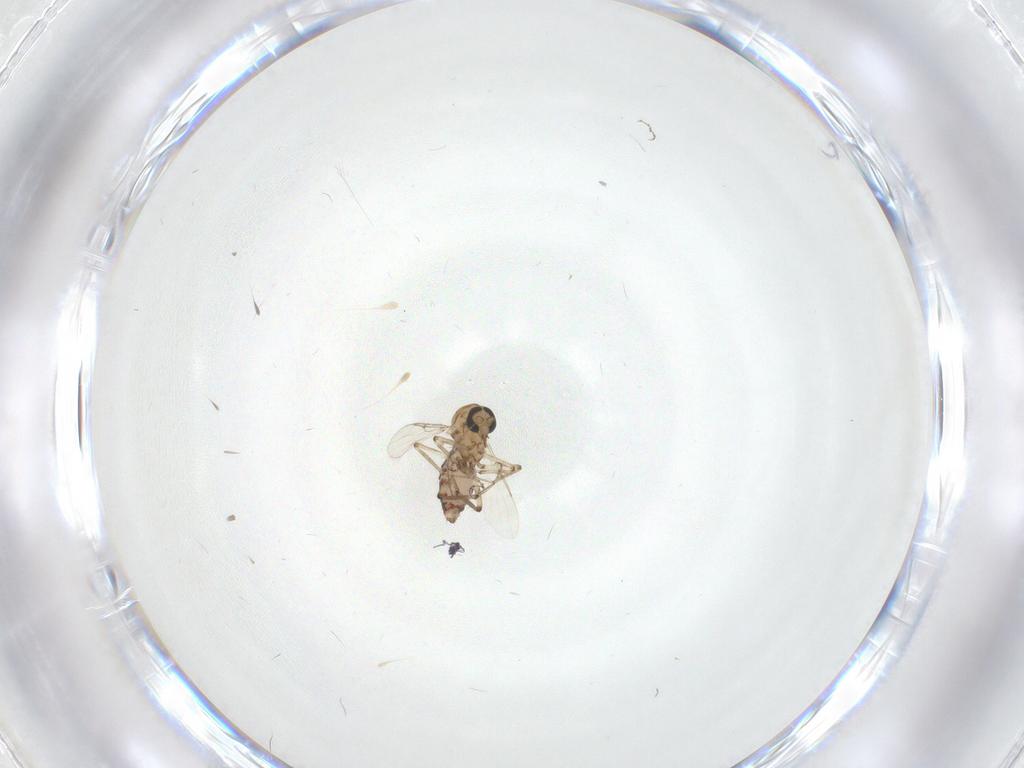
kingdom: Animalia
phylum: Arthropoda
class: Insecta
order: Diptera
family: Ceratopogonidae
